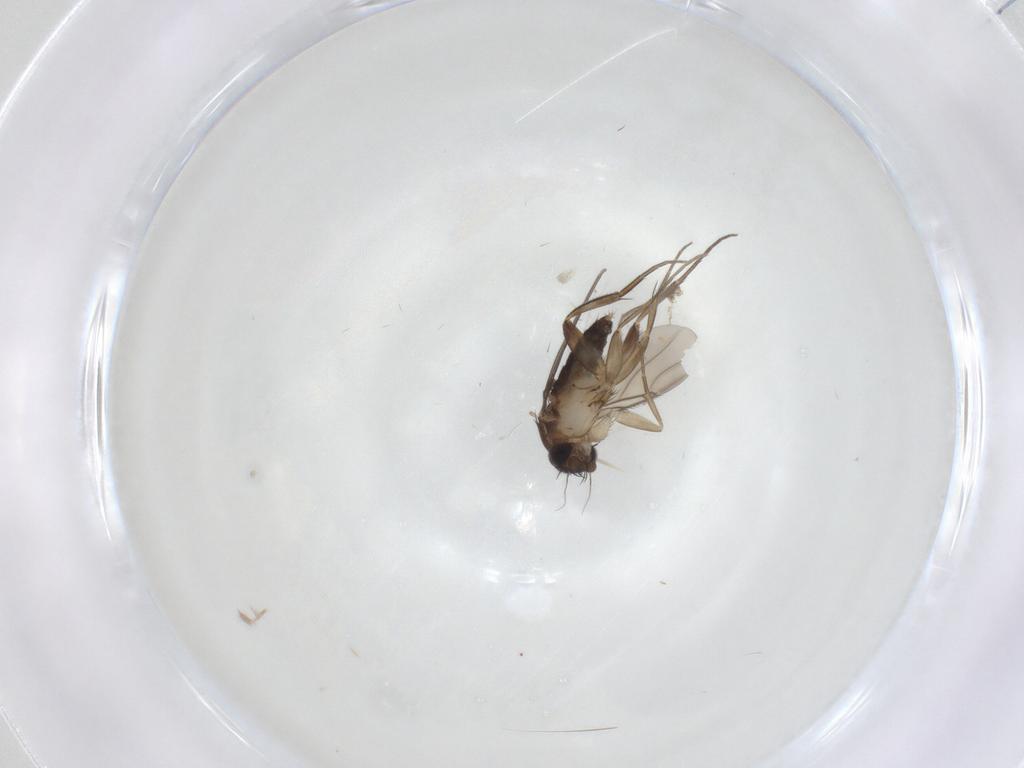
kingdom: Animalia
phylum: Arthropoda
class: Insecta
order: Diptera
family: Phoridae
